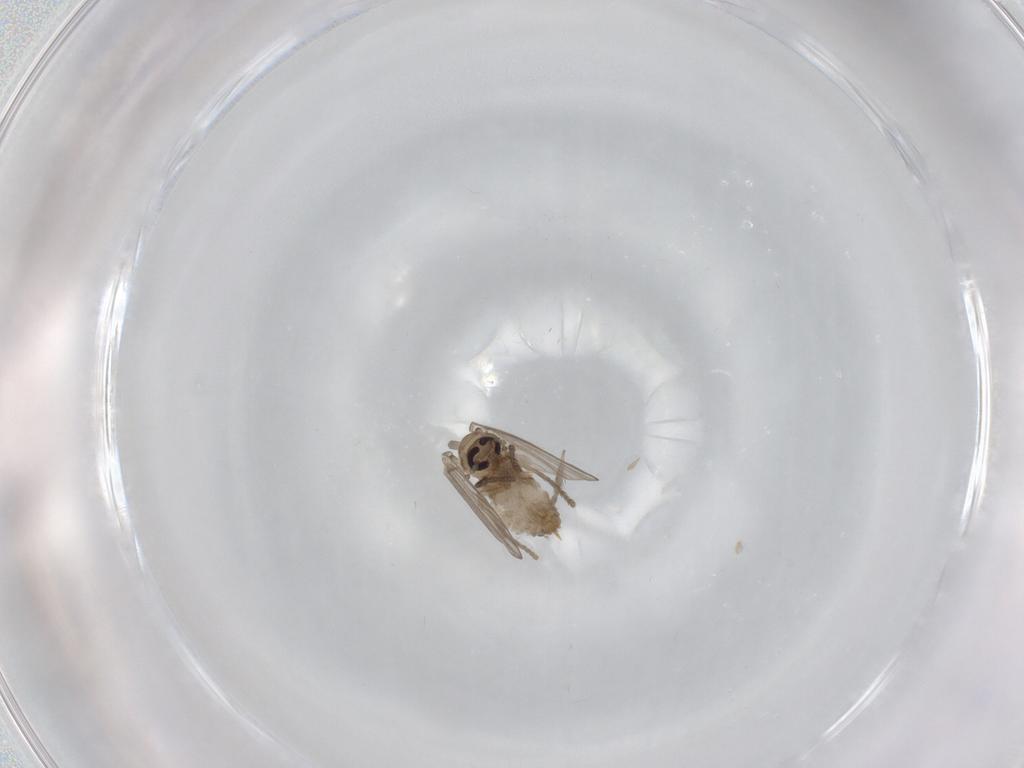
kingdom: Animalia
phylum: Arthropoda
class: Insecta
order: Diptera
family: Psychodidae
